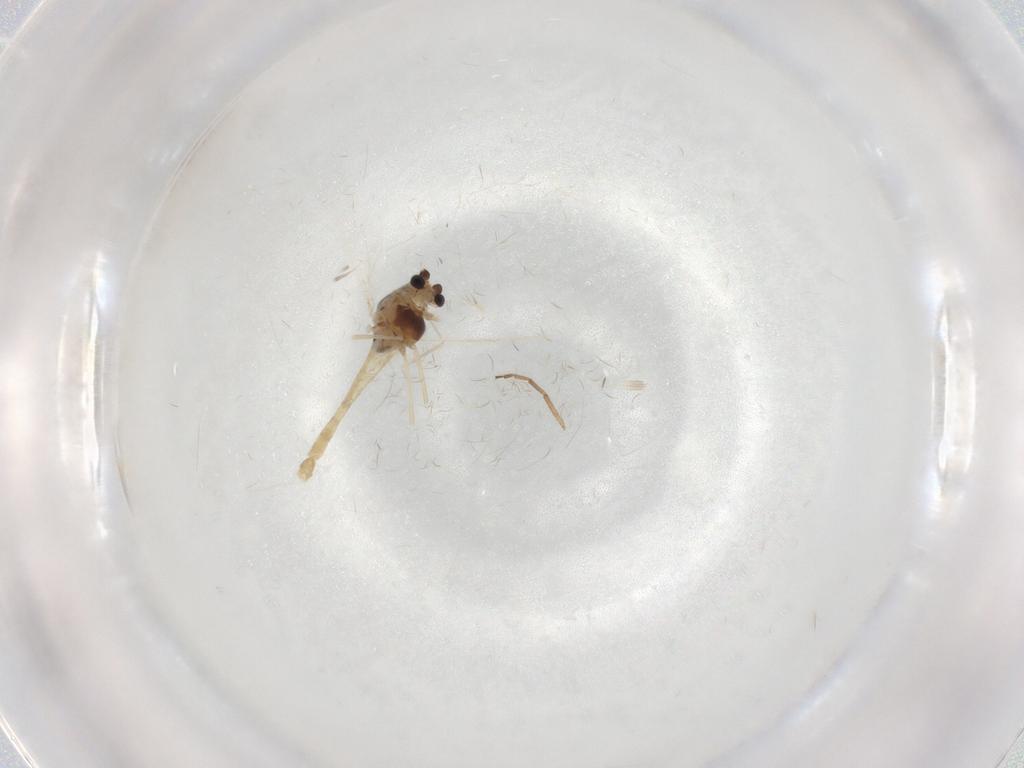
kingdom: Animalia
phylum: Arthropoda
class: Insecta
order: Diptera
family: Chironomidae
